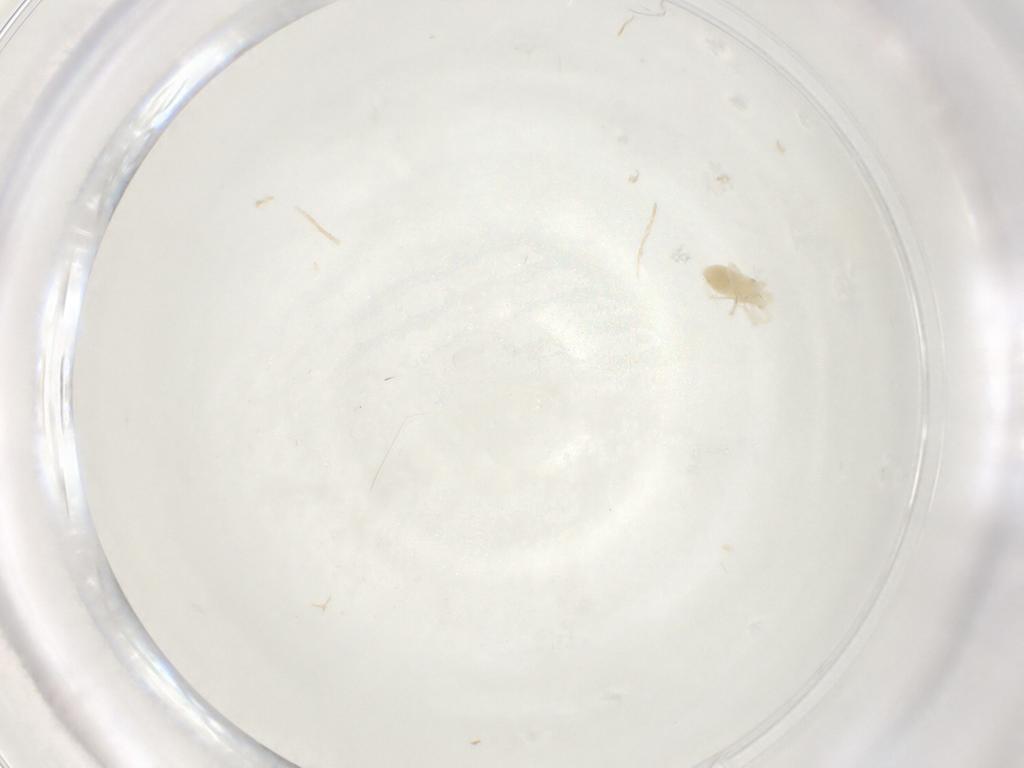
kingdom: Animalia
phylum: Arthropoda
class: Arachnida
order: Trombidiformes
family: Anystidae
